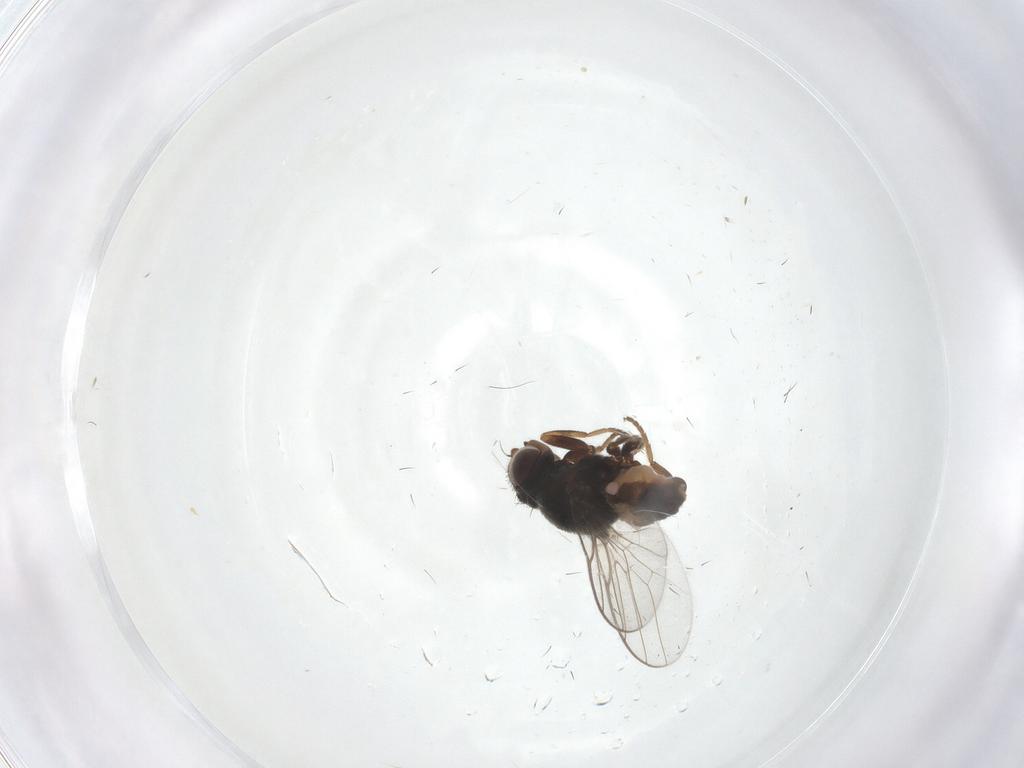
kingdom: Animalia
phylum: Arthropoda
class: Insecta
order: Diptera
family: Chloropidae
